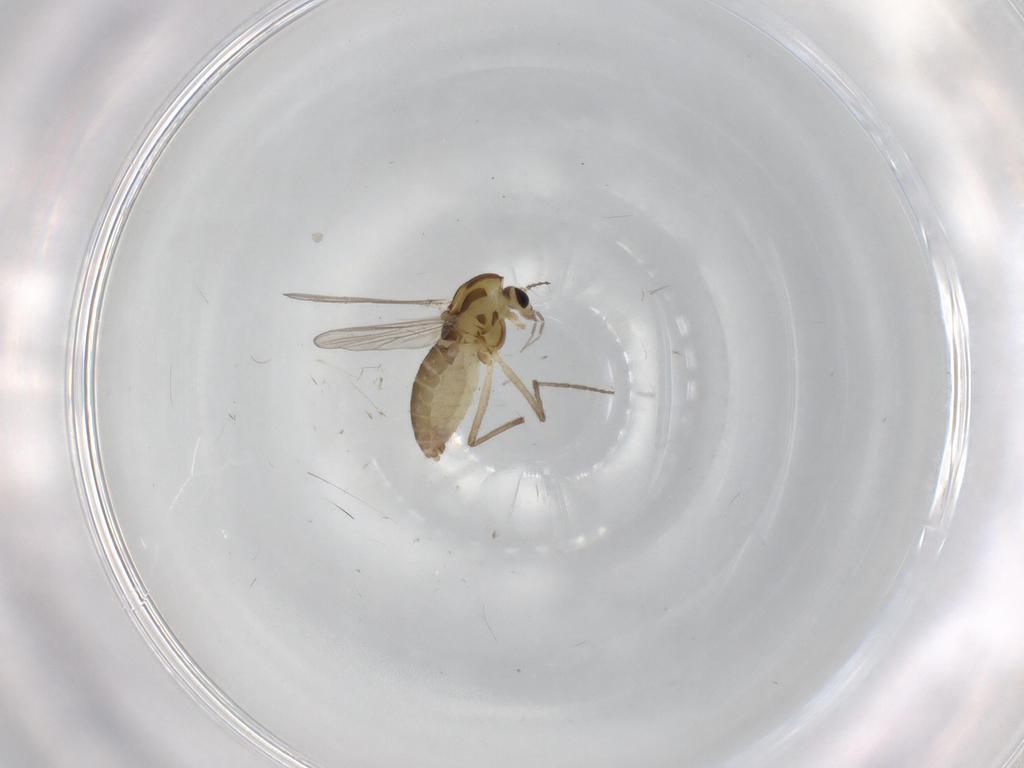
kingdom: Animalia
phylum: Arthropoda
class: Insecta
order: Diptera
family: Chironomidae
